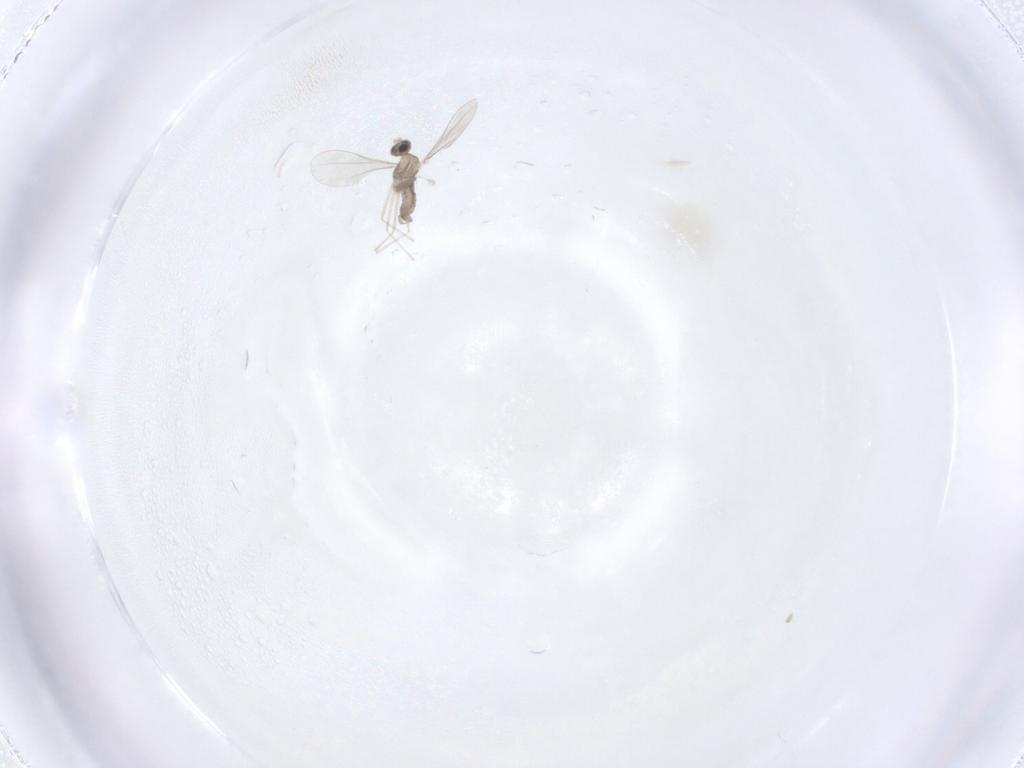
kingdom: Animalia
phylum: Arthropoda
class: Insecta
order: Diptera
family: Cecidomyiidae
